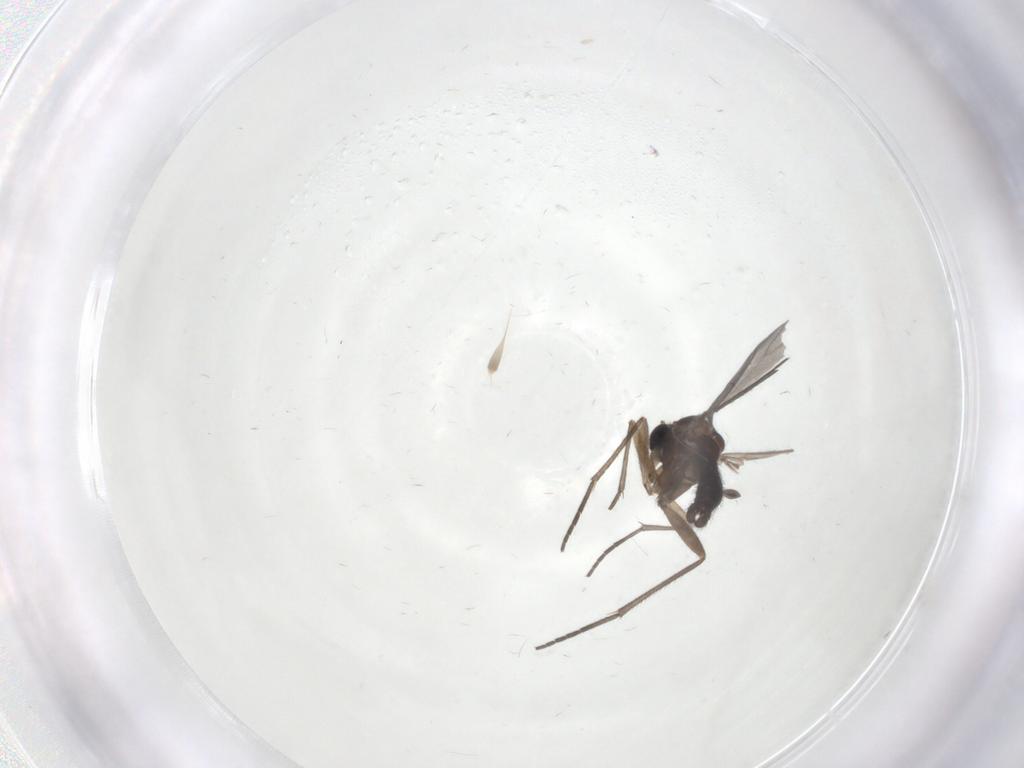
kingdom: Animalia
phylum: Arthropoda
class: Insecta
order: Diptera
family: Sciaridae
